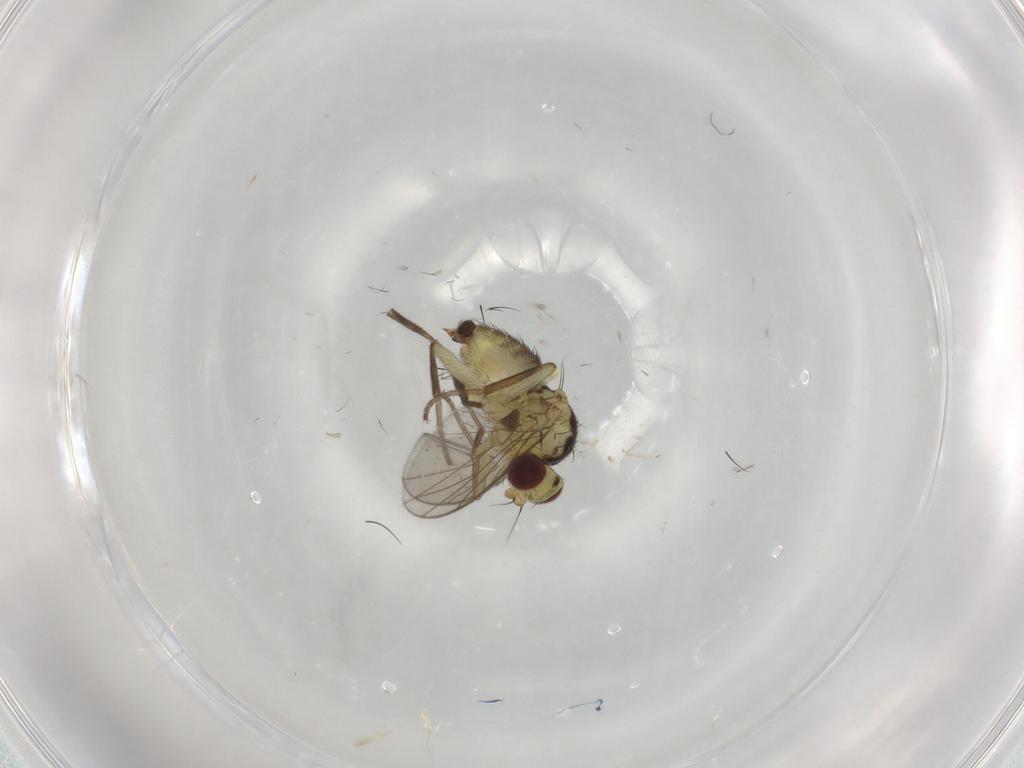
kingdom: Animalia
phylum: Arthropoda
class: Insecta
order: Diptera
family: Agromyzidae
